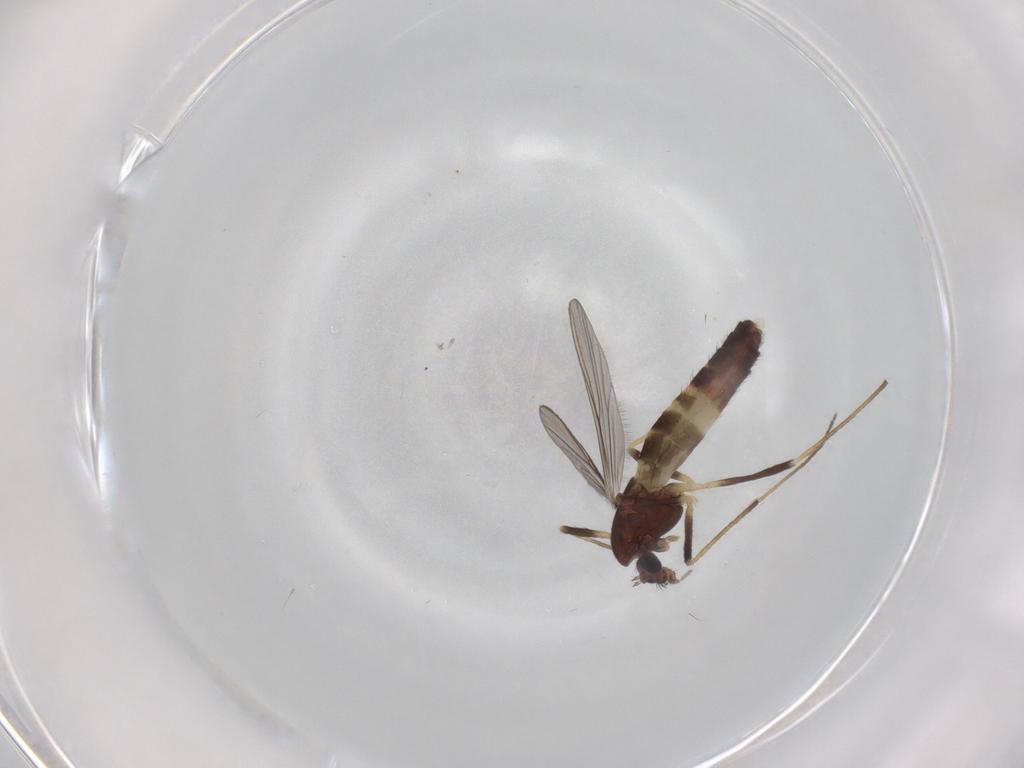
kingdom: Animalia
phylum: Arthropoda
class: Insecta
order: Diptera
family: Chironomidae
